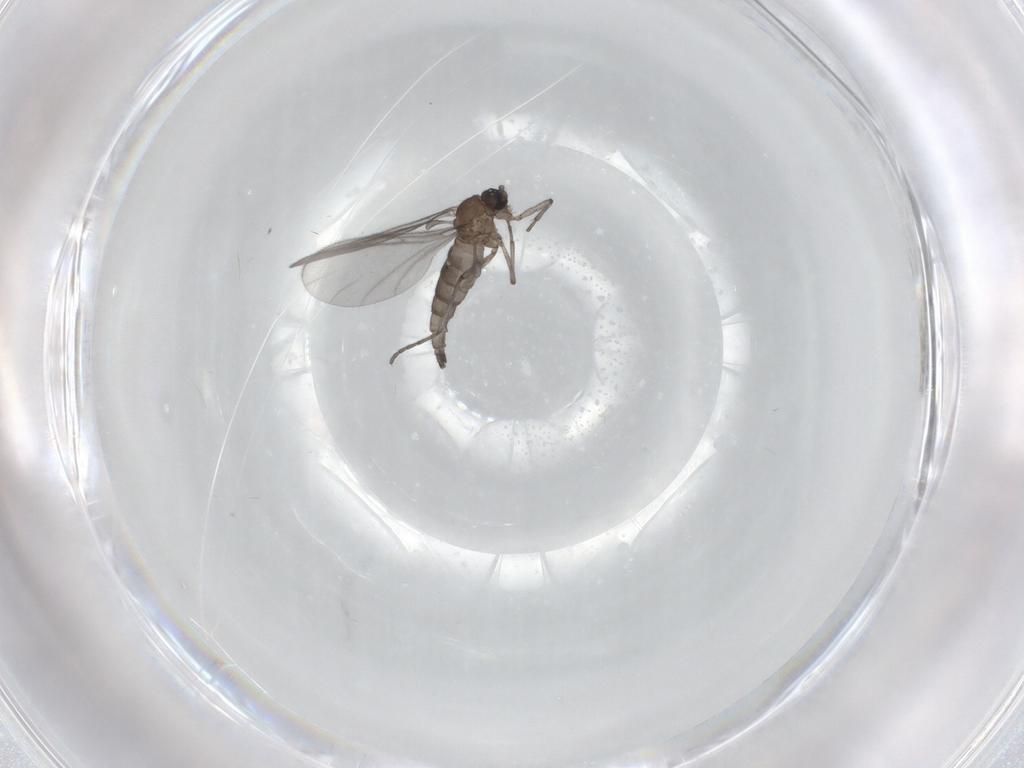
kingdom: Animalia
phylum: Arthropoda
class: Insecta
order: Diptera
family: Sciaridae
